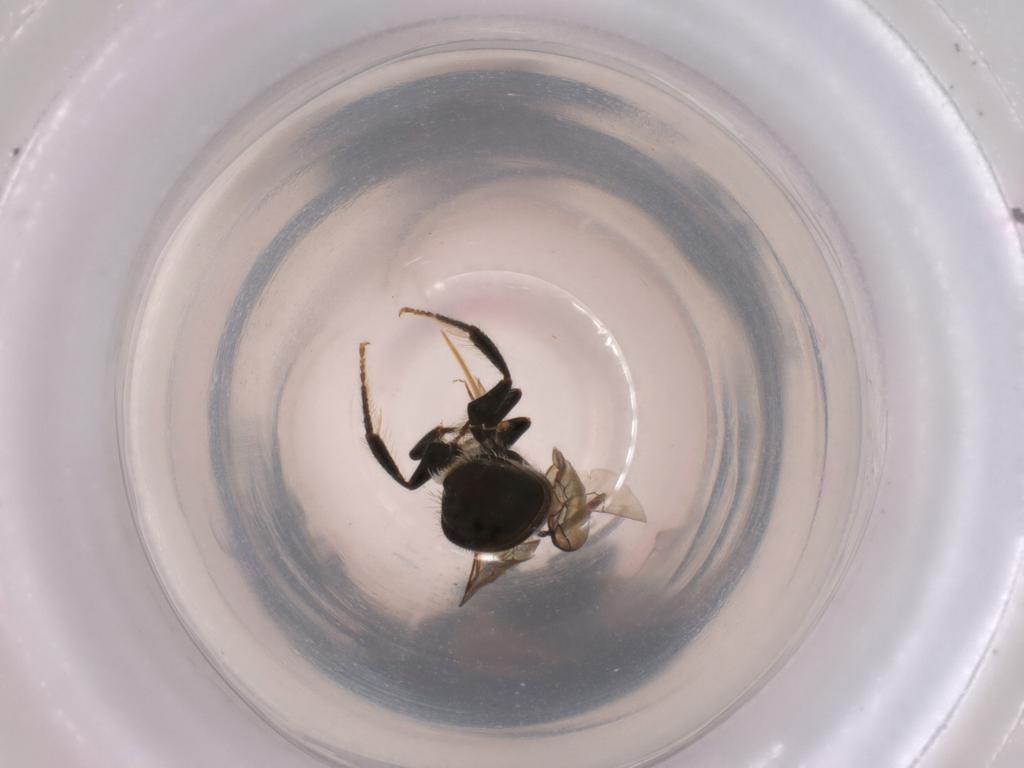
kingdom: Animalia
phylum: Arthropoda
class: Insecta
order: Hymenoptera
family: Apidae
